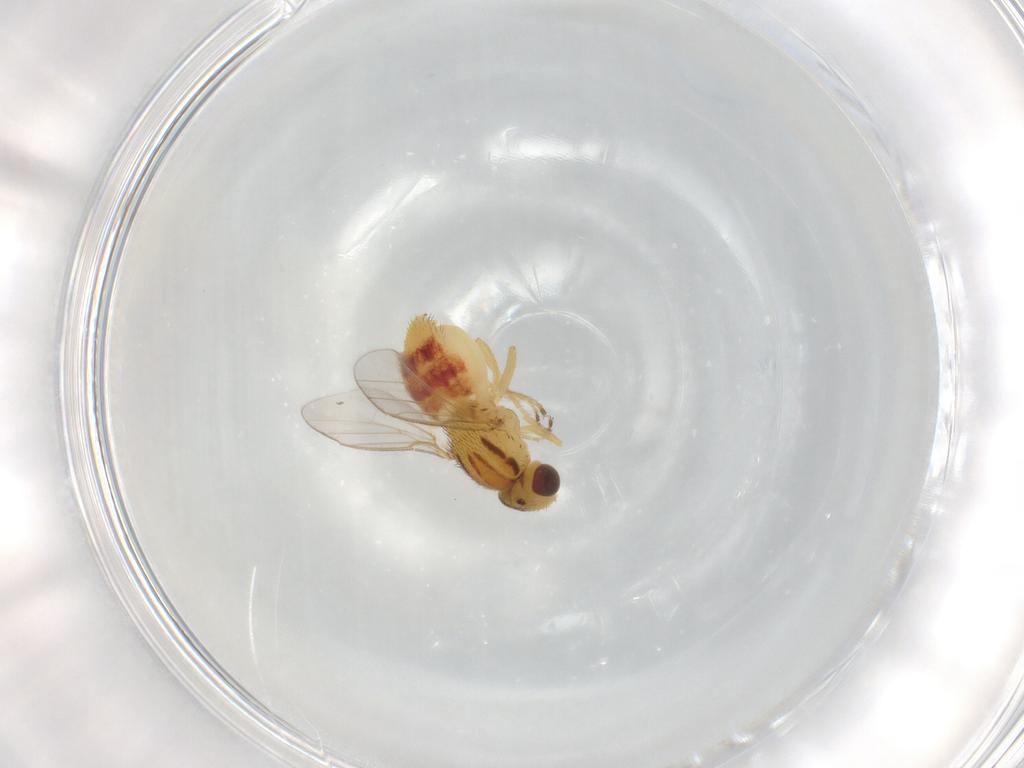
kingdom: Animalia
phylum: Arthropoda
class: Insecta
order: Diptera
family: Chloropidae
